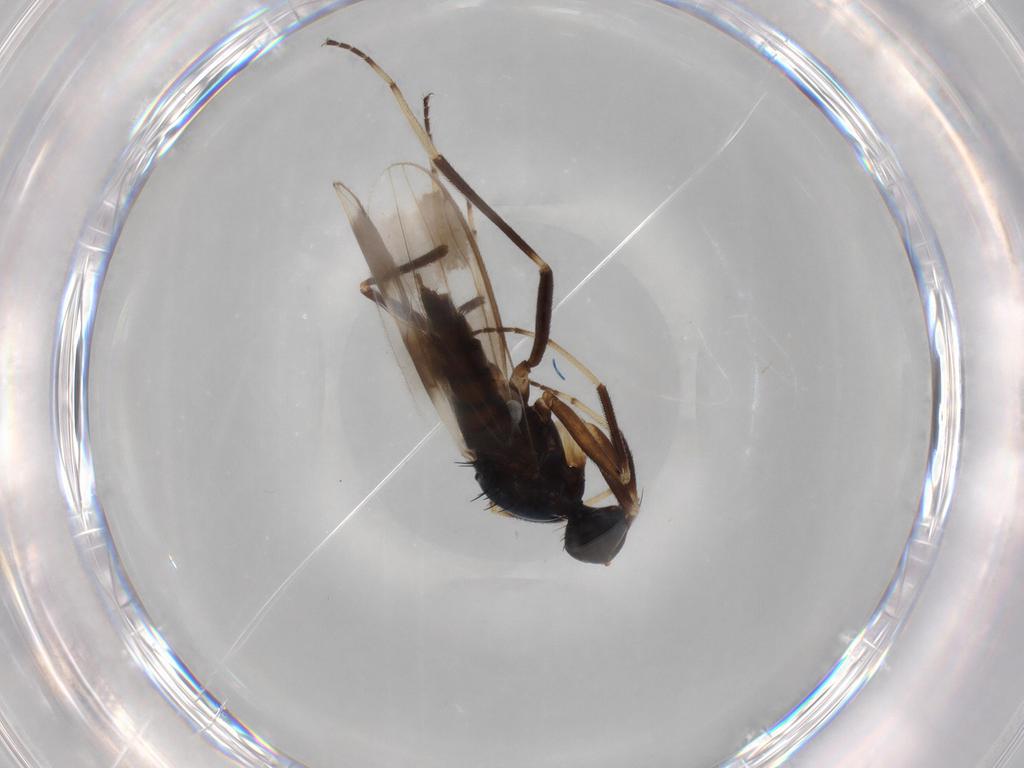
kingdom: Animalia
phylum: Arthropoda
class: Insecta
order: Diptera
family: Hybotidae
